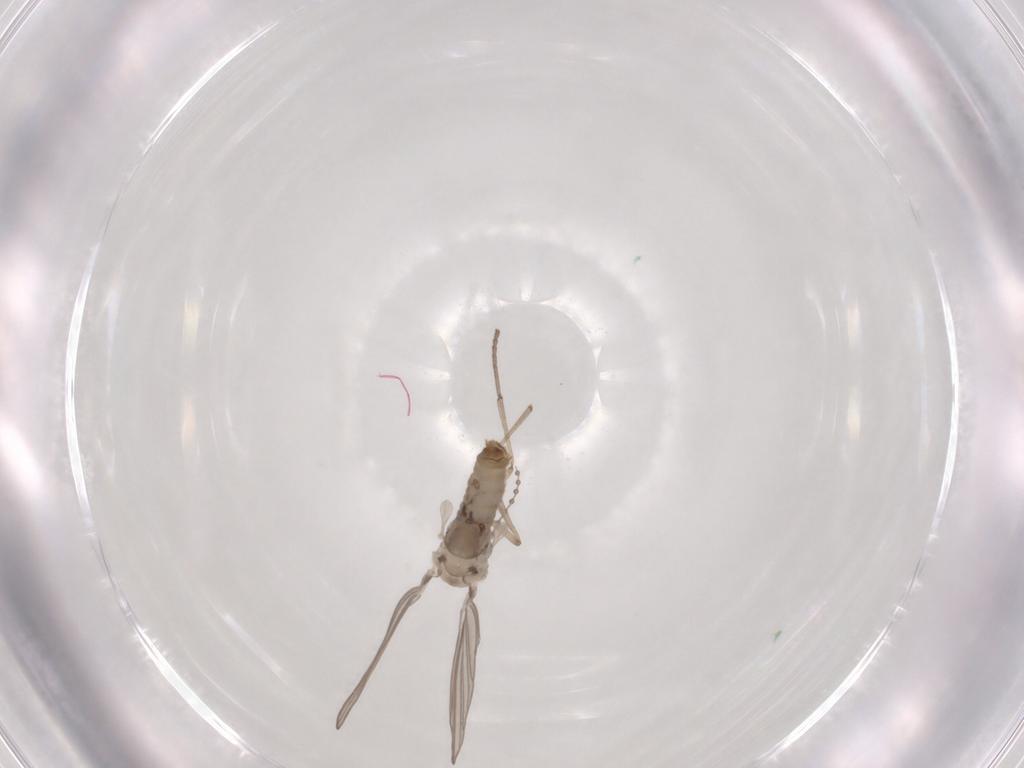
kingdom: Animalia
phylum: Arthropoda
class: Insecta
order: Diptera
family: Psychodidae
